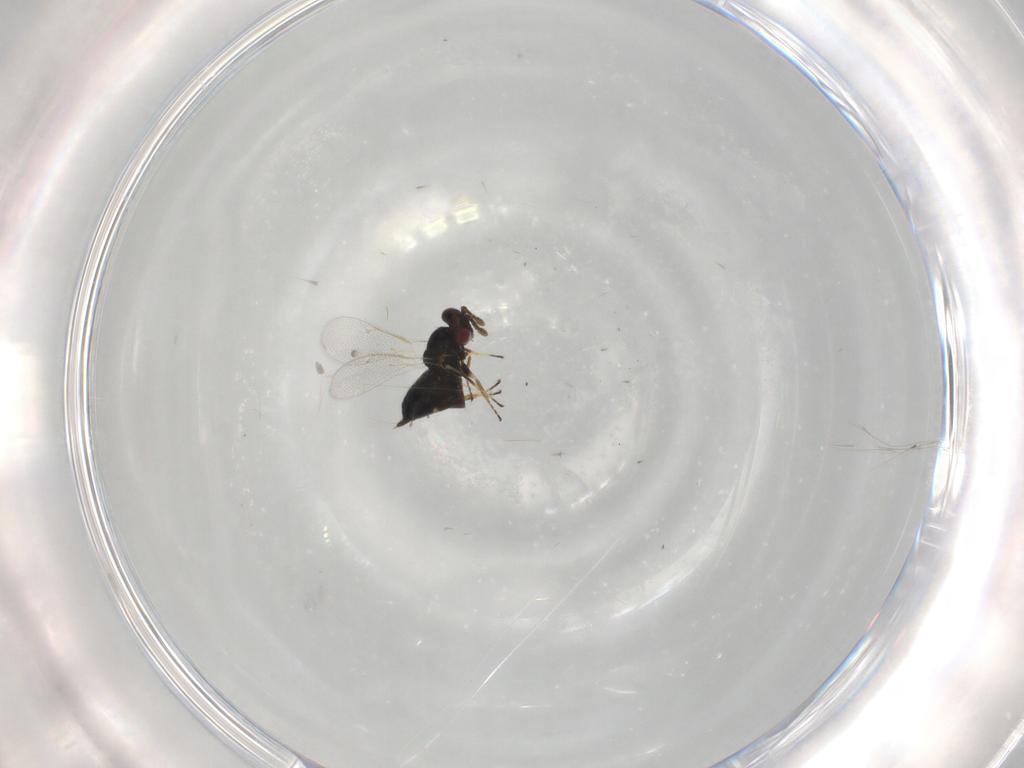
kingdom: Animalia
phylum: Arthropoda
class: Insecta
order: Hymenoptera
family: Eulophidae
